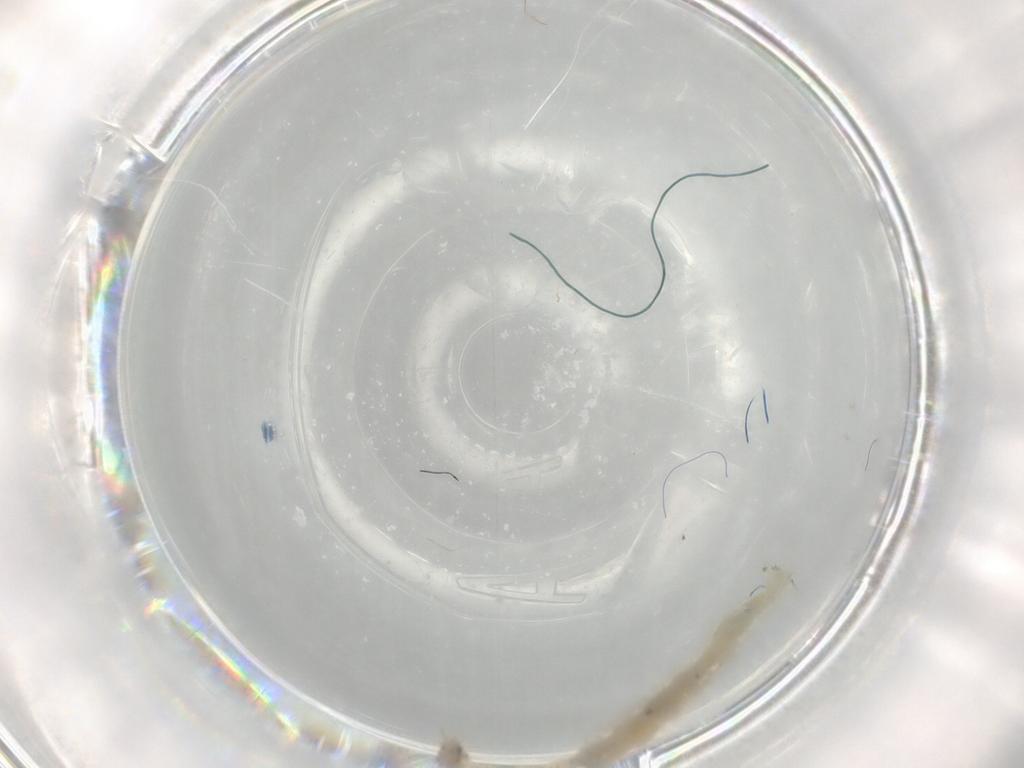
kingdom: Animalia
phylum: Arthropoda
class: Insecta
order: Diptera
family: Chironomidae
